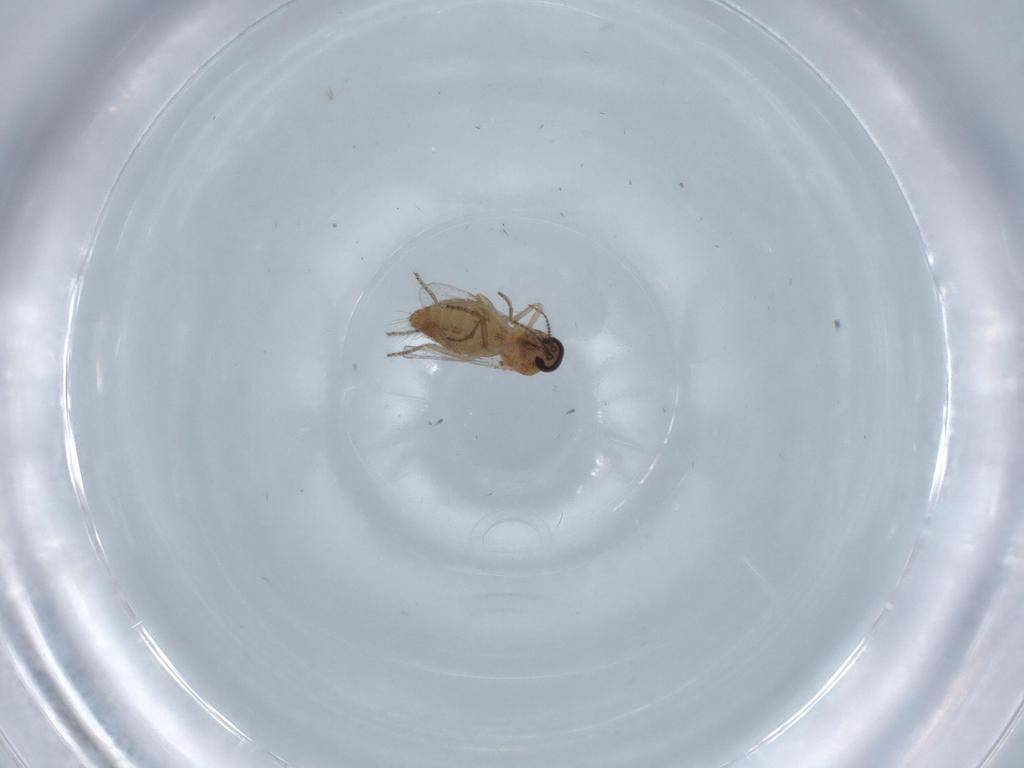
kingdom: Animalia
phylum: Arthropoda
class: Insecta
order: Diptera
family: Ceratopogonidae
